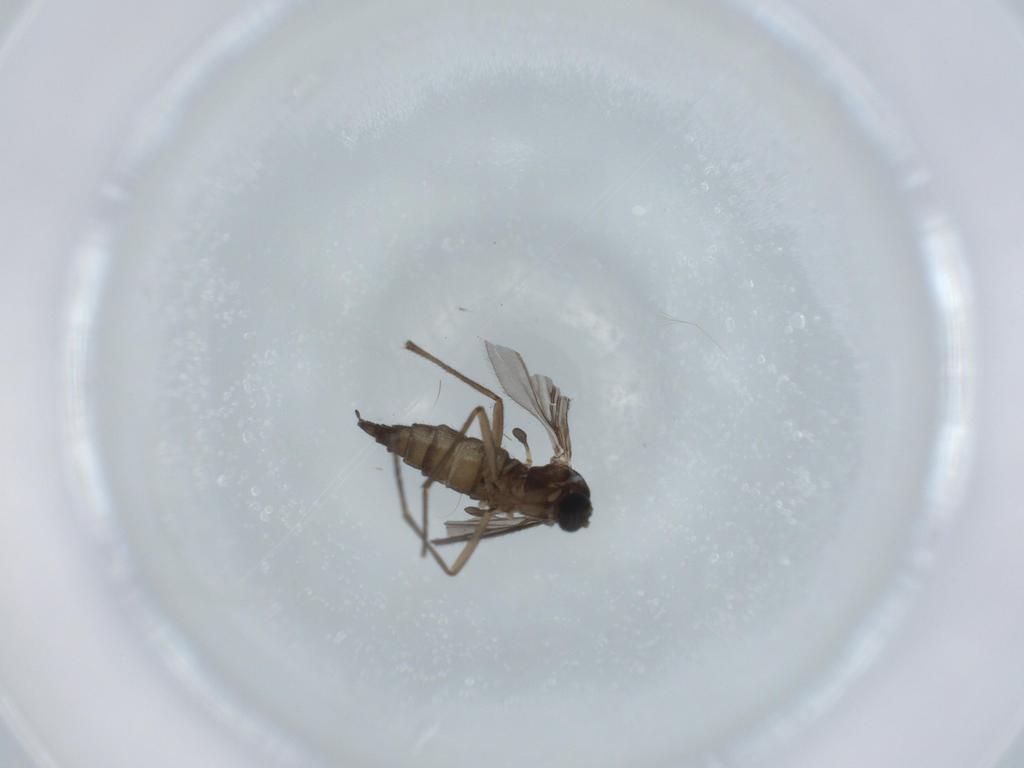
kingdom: Animalia
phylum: Arthropoda
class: Insecta
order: Diptera
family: Sciaridae
